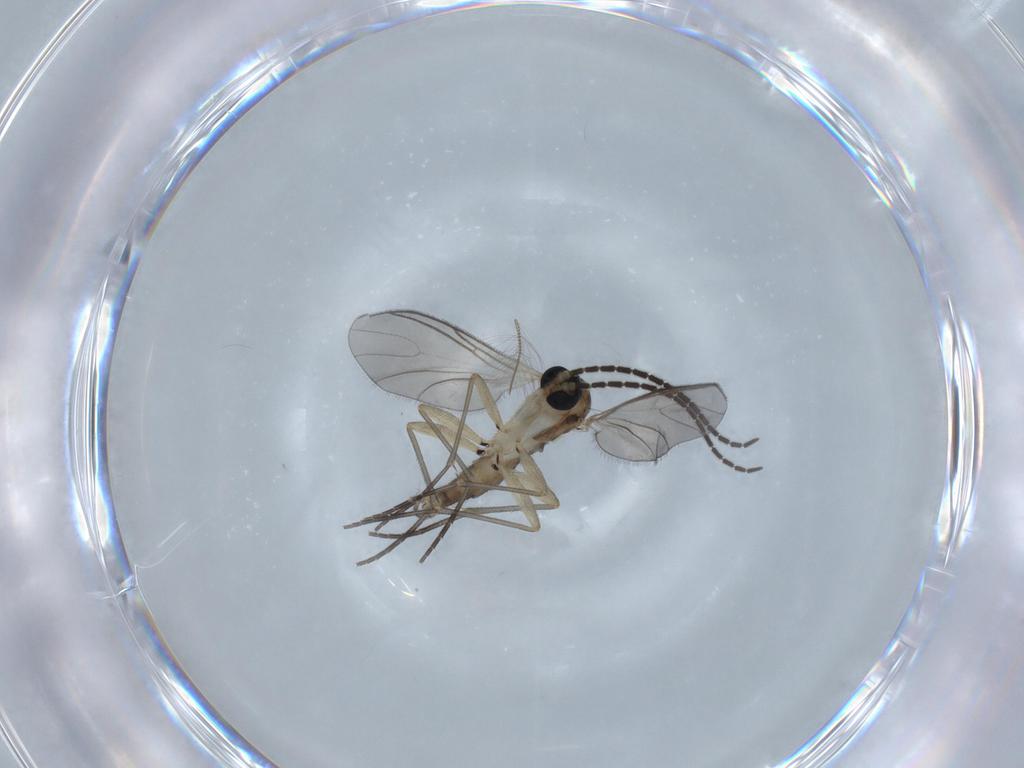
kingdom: Animalia
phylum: Arthropoda
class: Insecta
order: Diptera
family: Sciaridae
